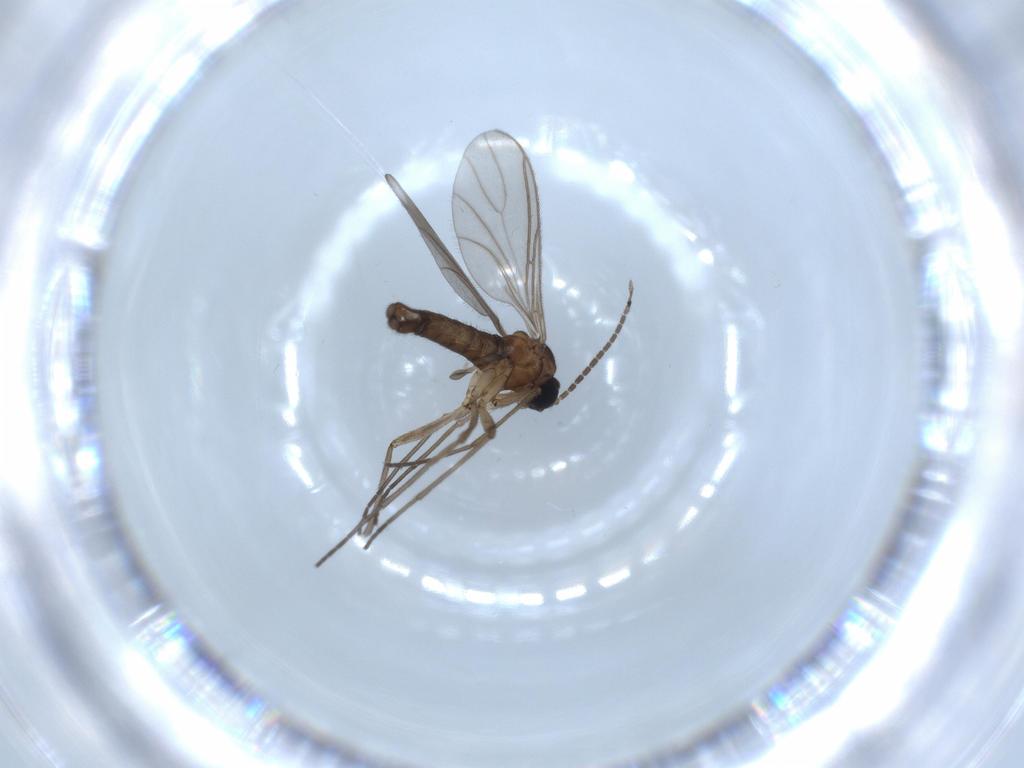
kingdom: Animalia
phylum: Arthropoda
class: Insecta
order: Diptera
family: Sciaridae
